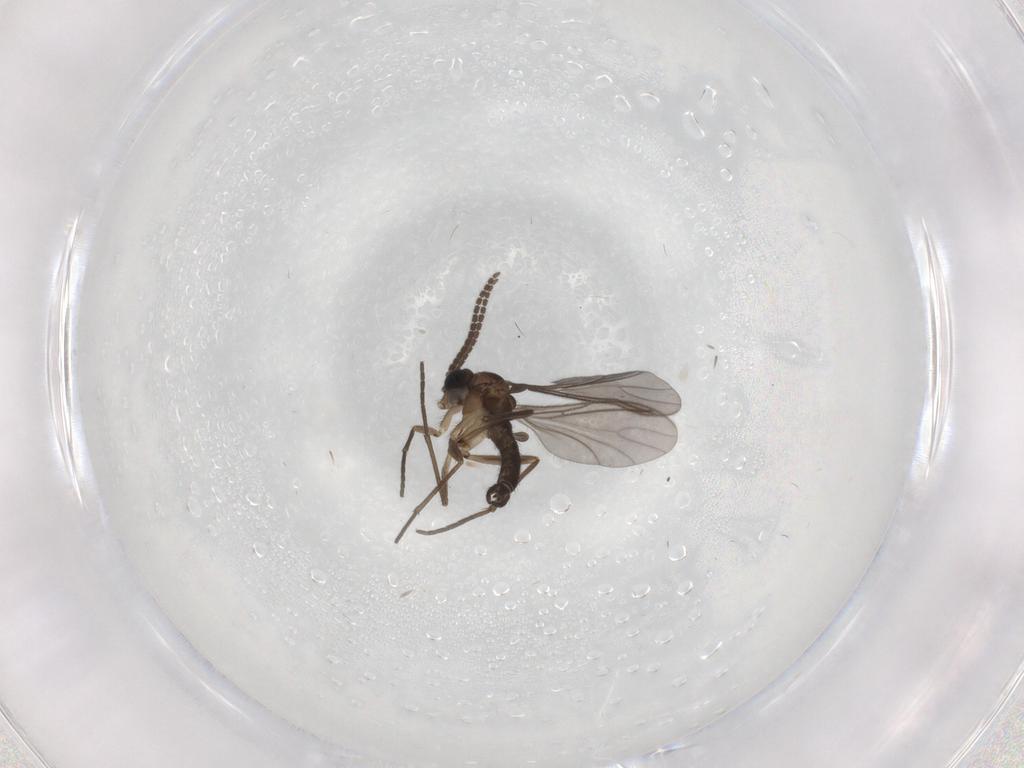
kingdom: Animalia
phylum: Arthropoda
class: Insecta
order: Diptera
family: Sciaridae
